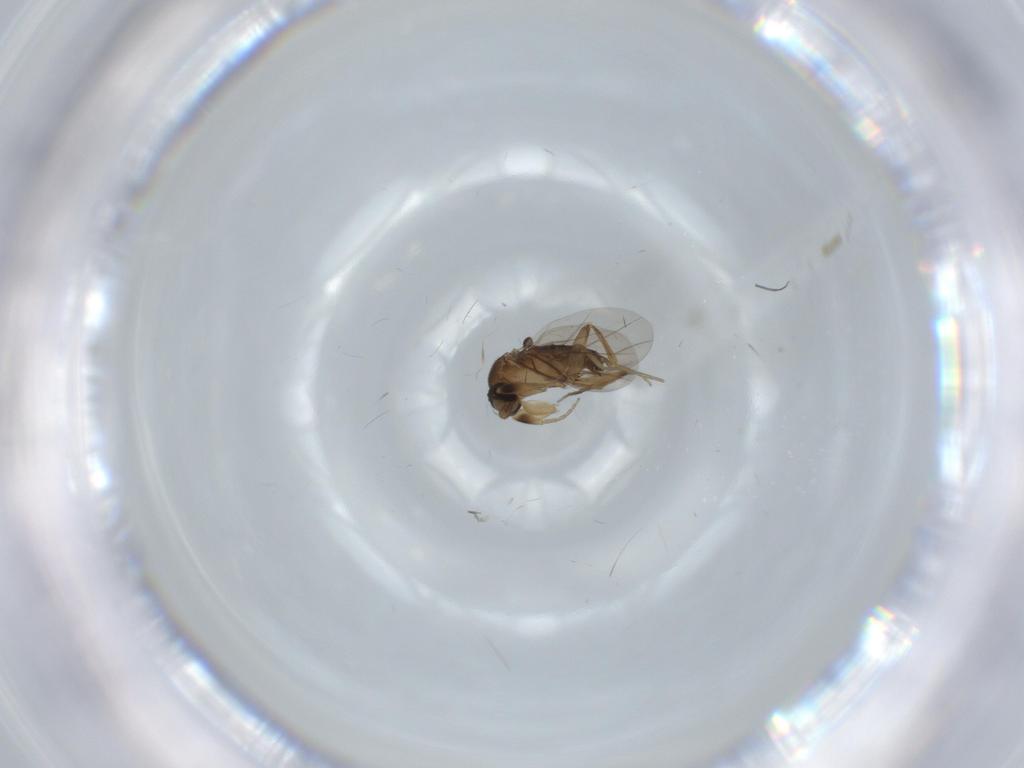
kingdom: Animalia
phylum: Arthropoda
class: Insecta
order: Diptera
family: Phoridae
